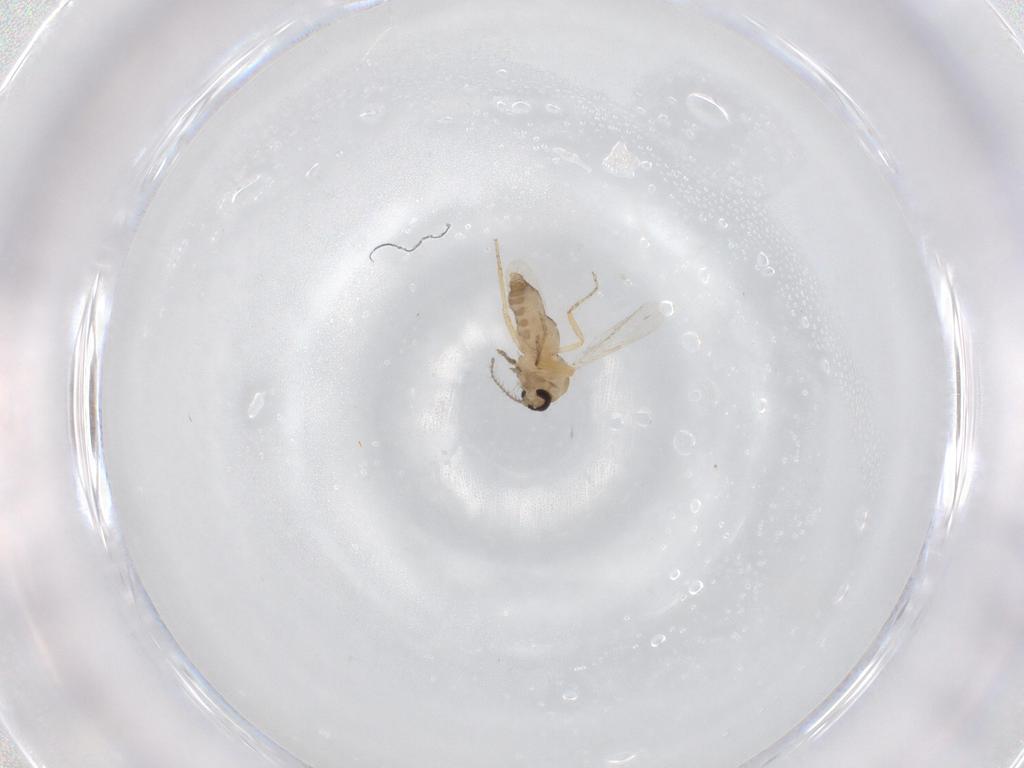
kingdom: Animalia
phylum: Arthropoda
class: Insecta
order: Diptera
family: Ceratopogonidae
